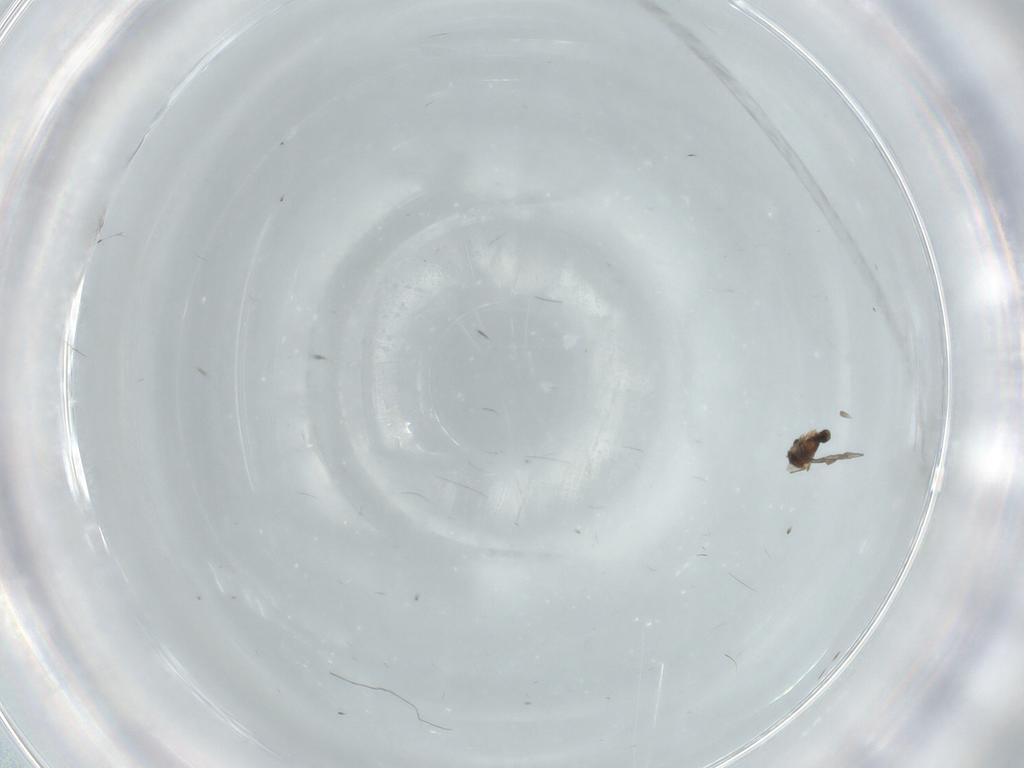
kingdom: Animalia
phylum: Arthropoda
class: Insecta
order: Diptera
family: Cecidomyiidae
